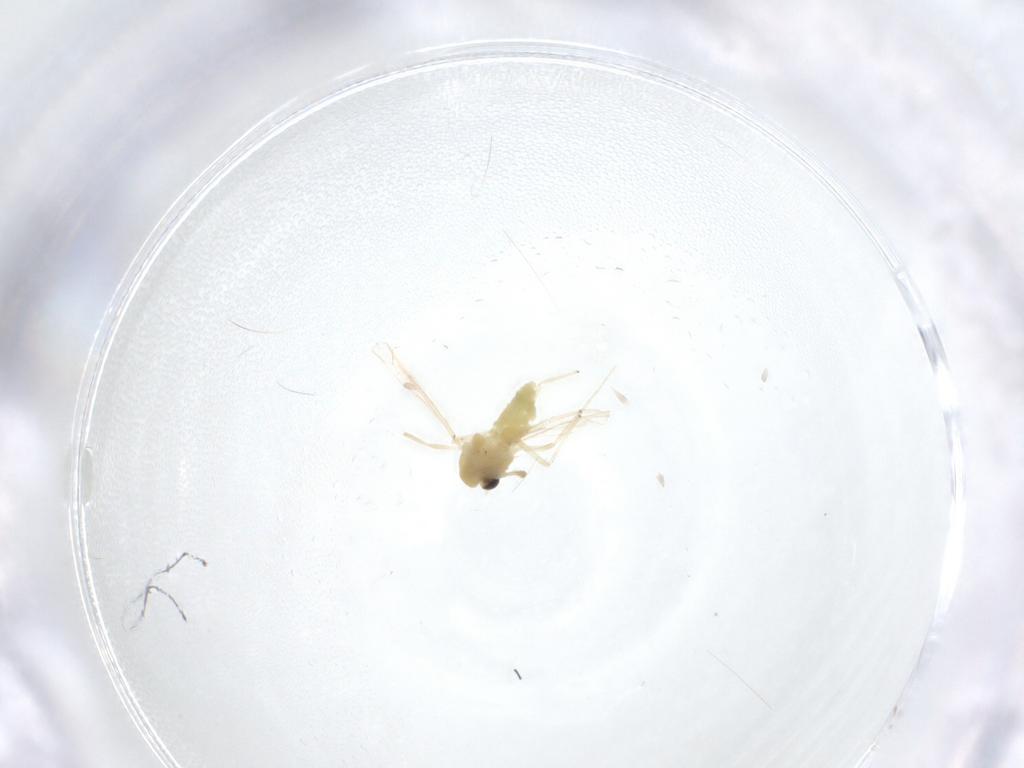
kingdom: Animalia
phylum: Arthropoda
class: Insecta
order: Diptera
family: Chironomidae
